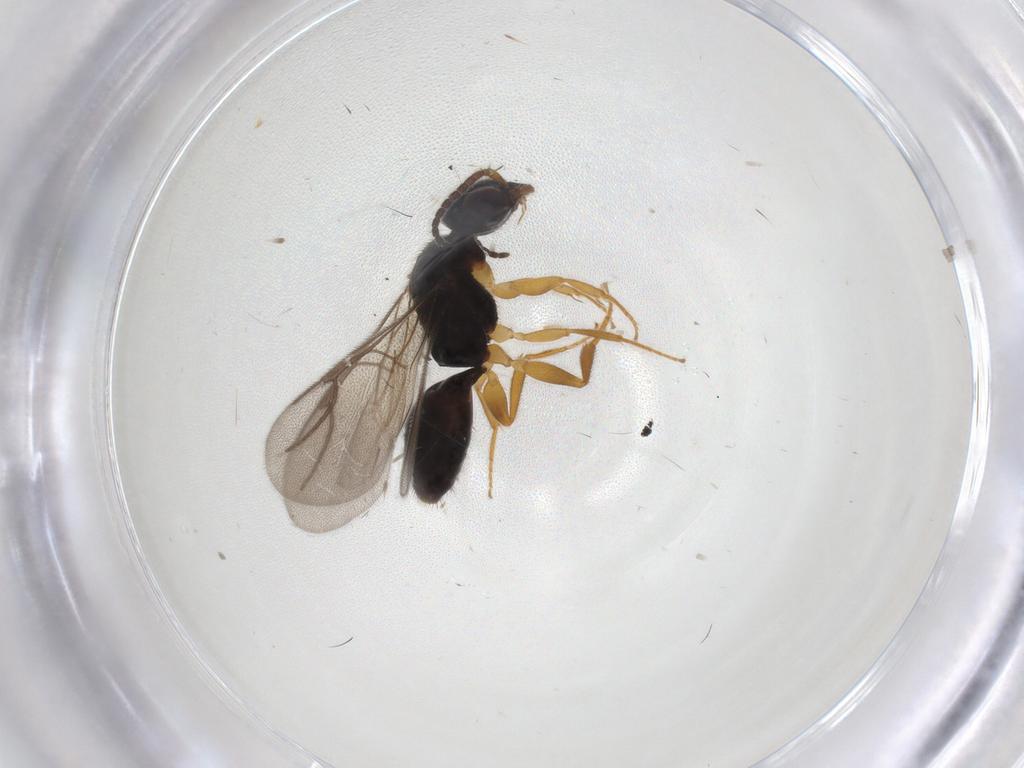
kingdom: Animalia
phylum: Arthropoda
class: Insecta
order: Hymenoptera
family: Bethylidae
